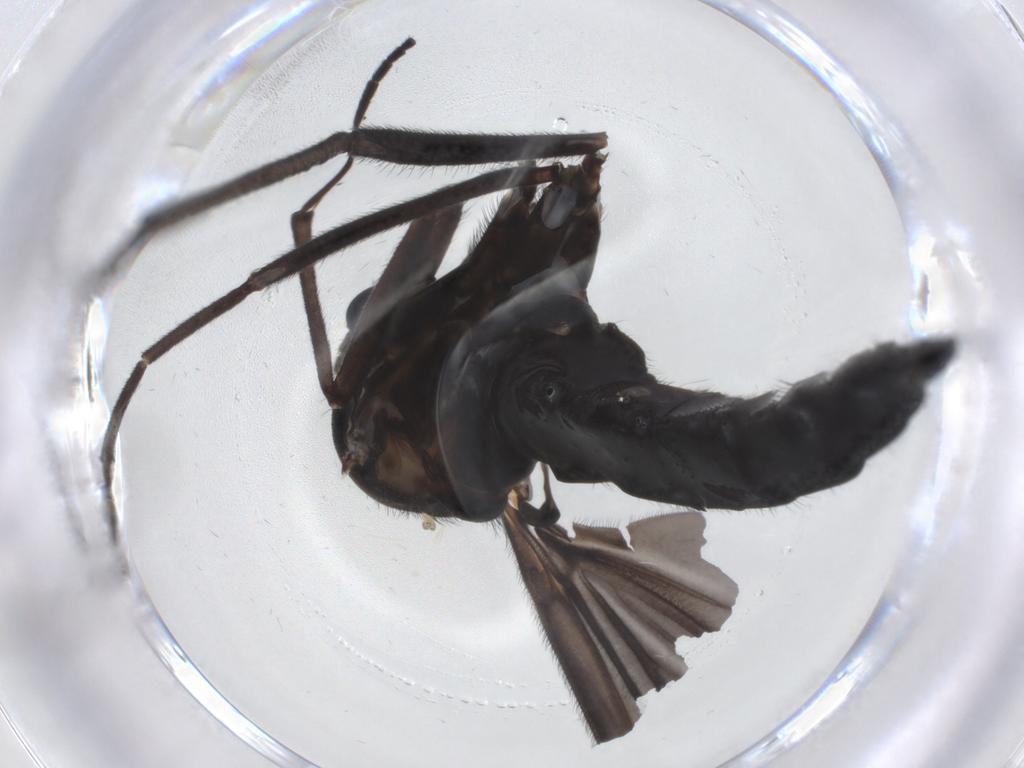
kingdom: Animalia
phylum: Arthropoda
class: Insecta
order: Diptera
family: Sciaridae
